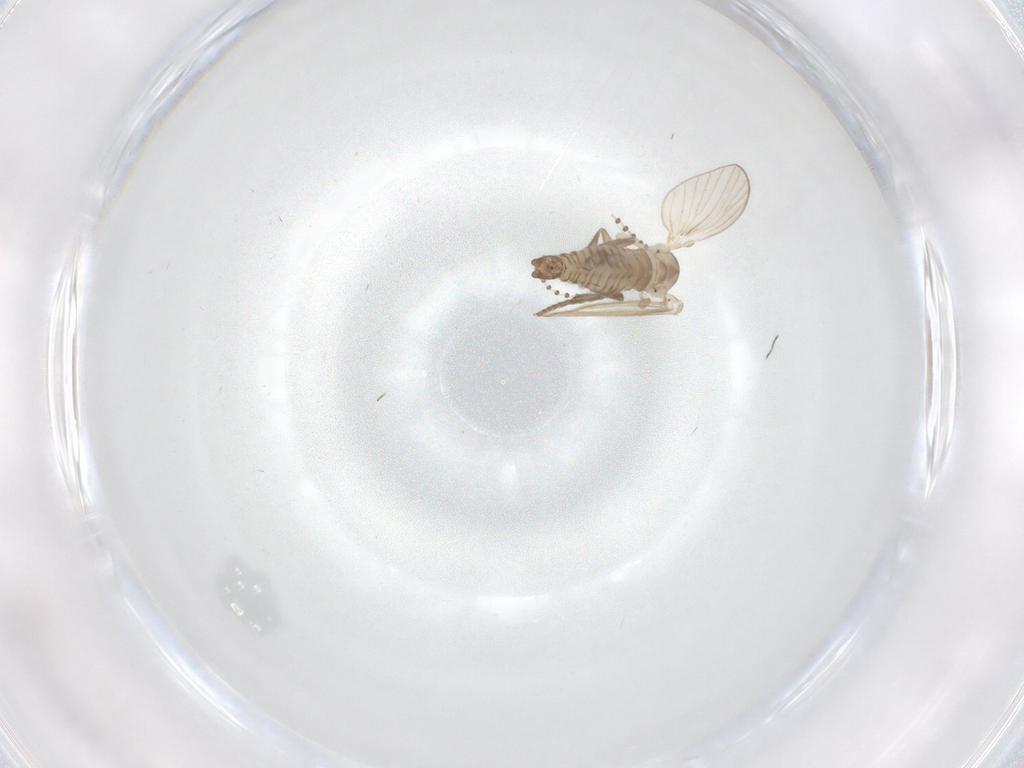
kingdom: Animalia
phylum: Arthropoda
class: Insecta
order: Diptera
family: Psychodidae
